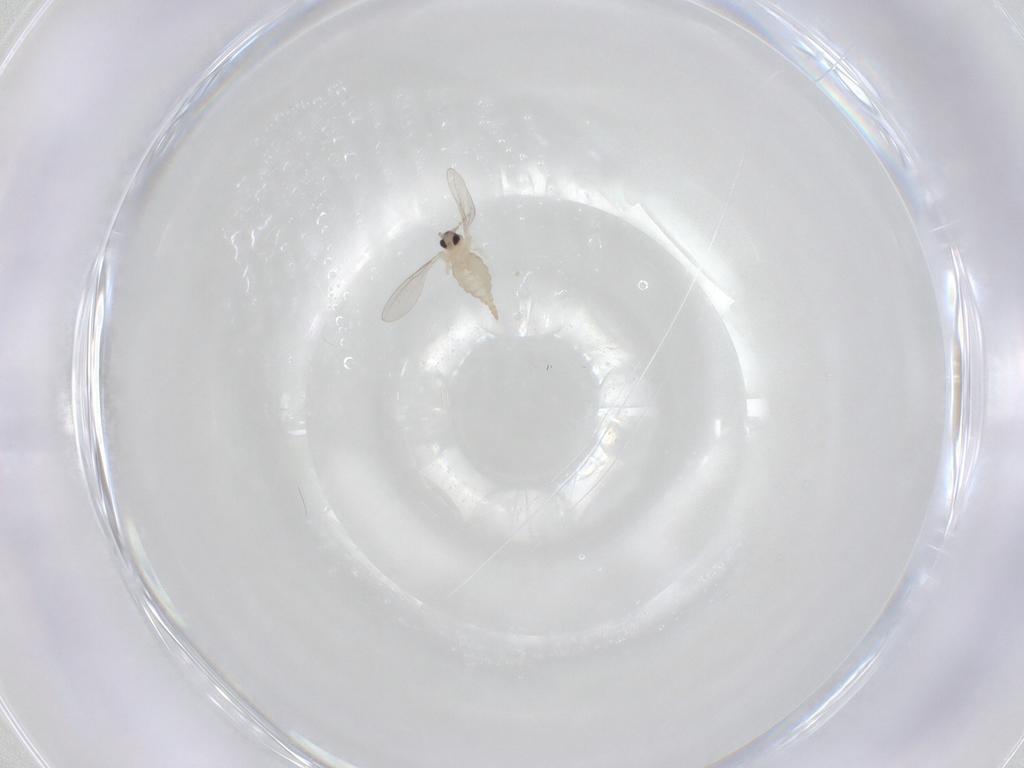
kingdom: Animalia
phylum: Arthropoda
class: Insecta
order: Diptera
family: Cecidomyiidae
